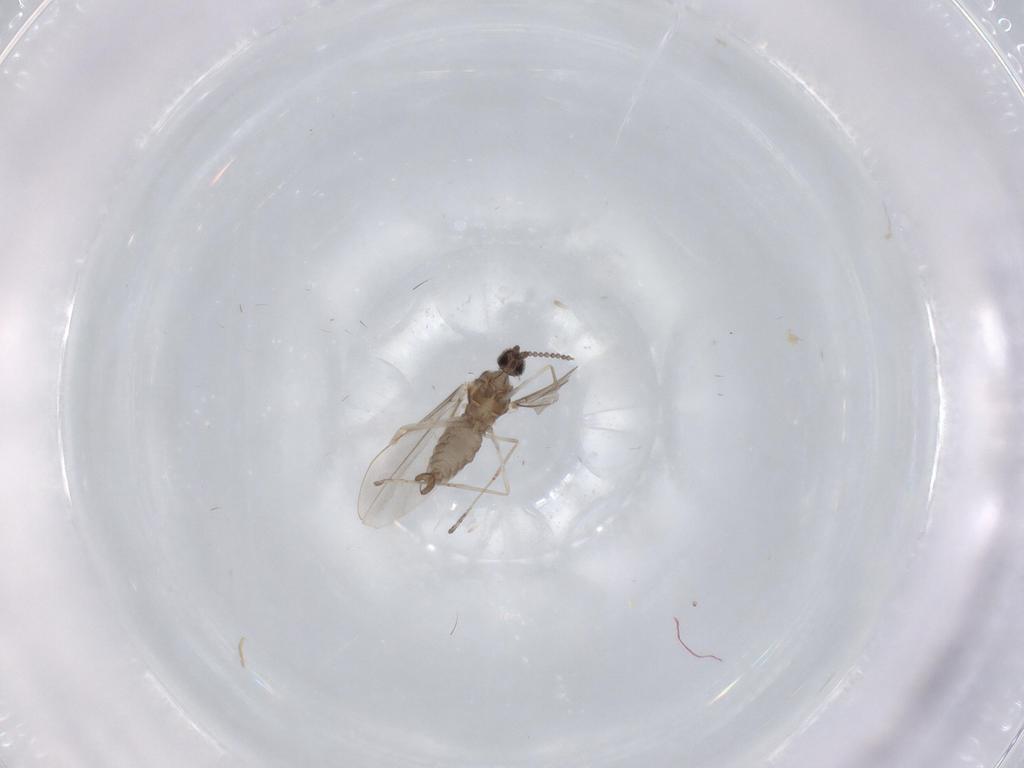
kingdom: Animalia
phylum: Arthropoda
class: Insecta
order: Diptera
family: Cecidomyiidae
